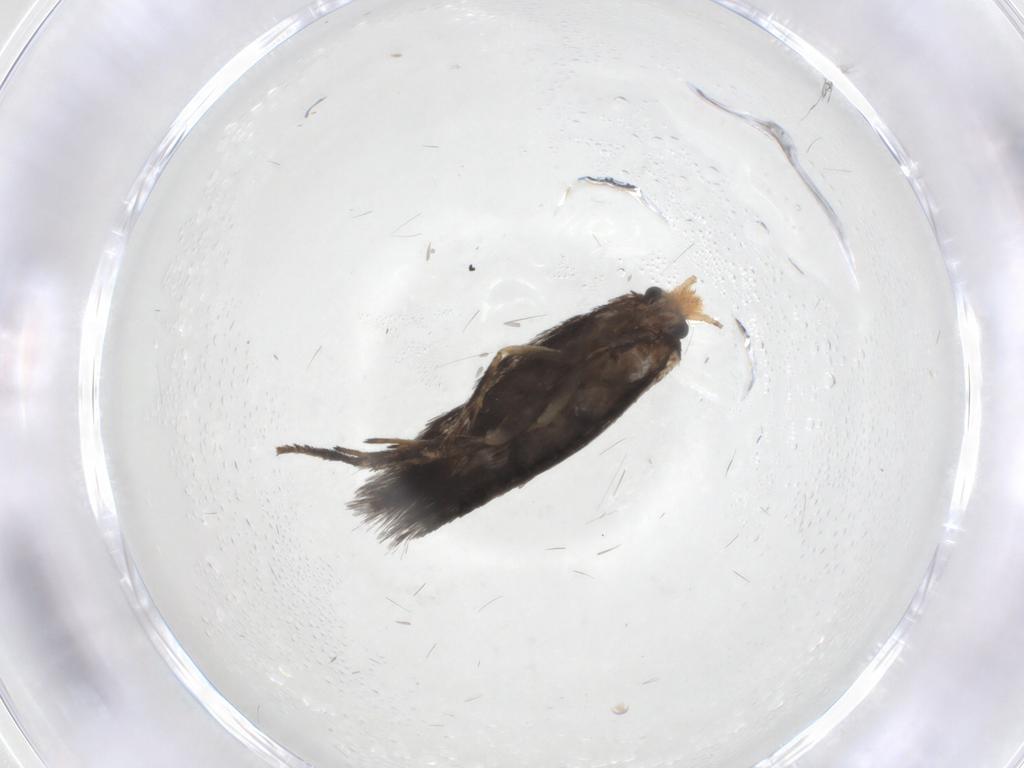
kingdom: Animalia
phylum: Arthropoda
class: Insecta
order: Lepidoptera
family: Nepticulidae
